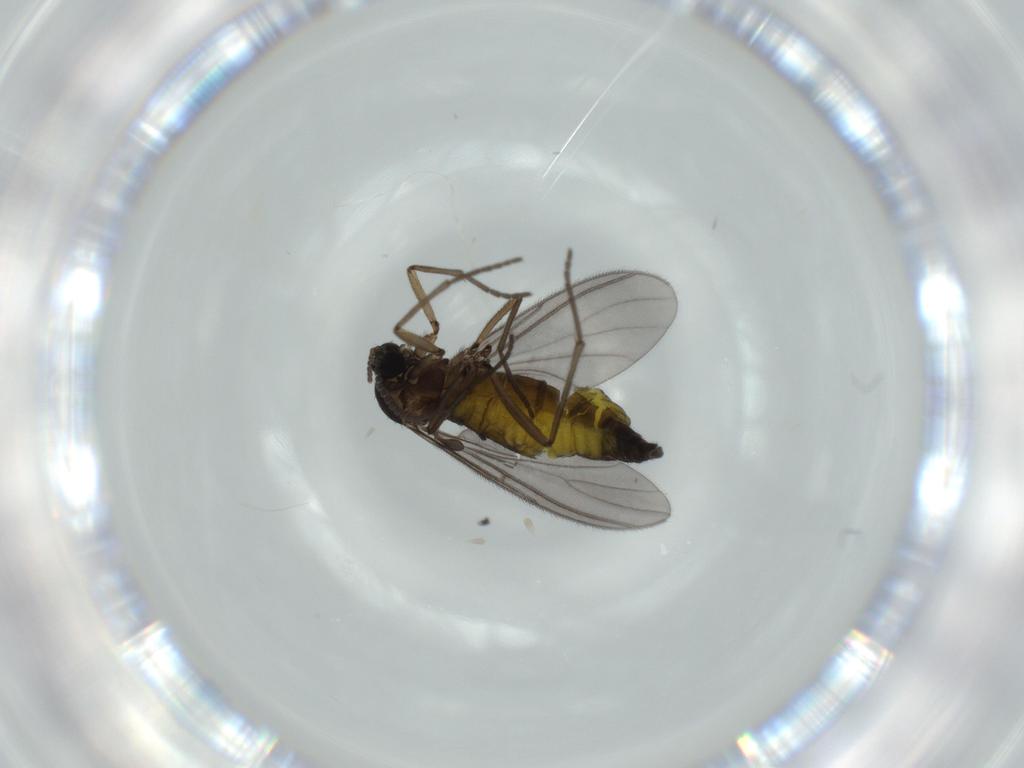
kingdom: Animalia
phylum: Arthropoda
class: Insecta
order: Diptera
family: Sciaridae
